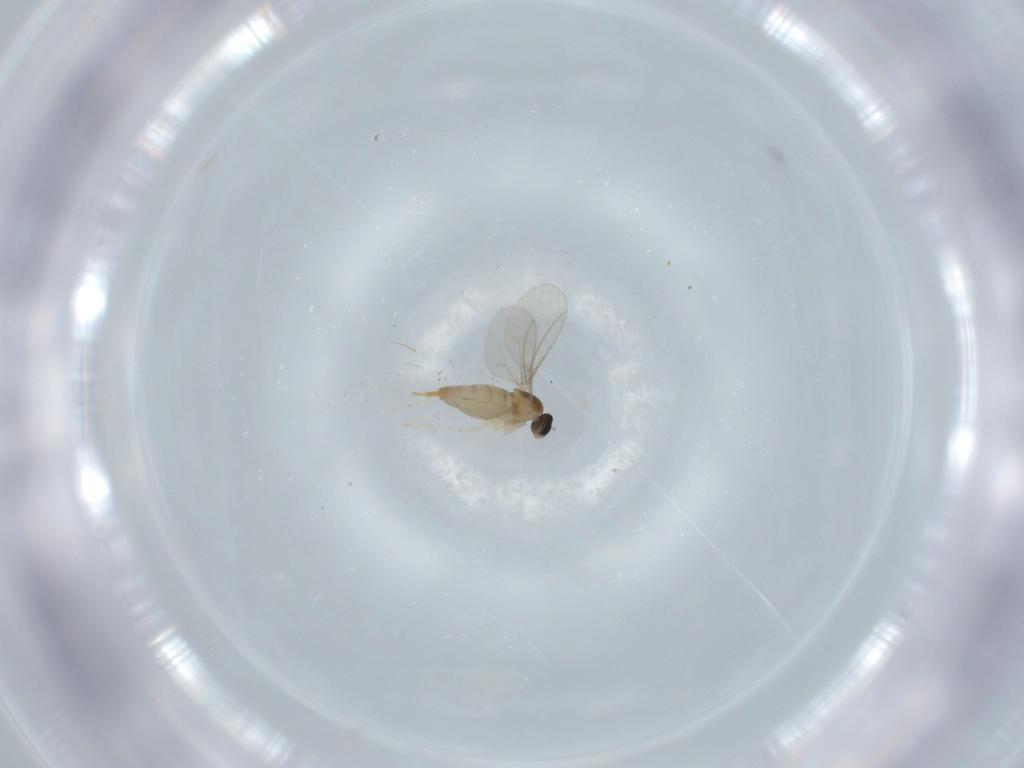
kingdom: Animalia
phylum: Arthropoda
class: Insecta
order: Diptera
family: Cecidomyiidae
